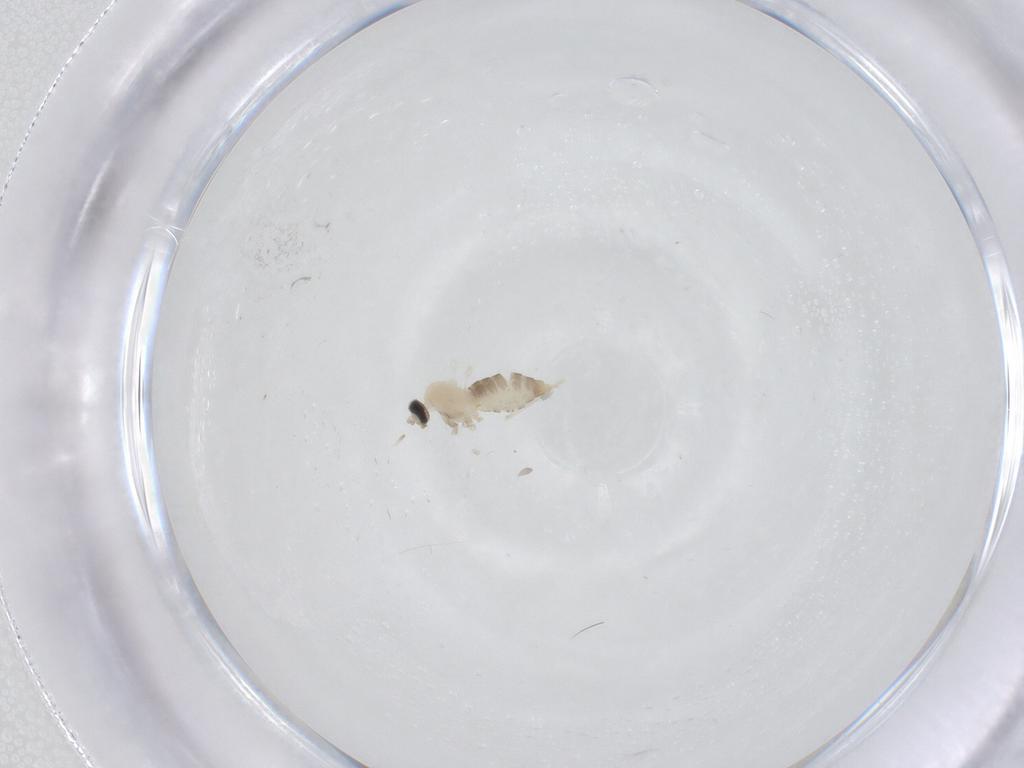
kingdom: Animalia
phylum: Arthropoda
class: Insecta
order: Diptera
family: Cecidomyiidae
